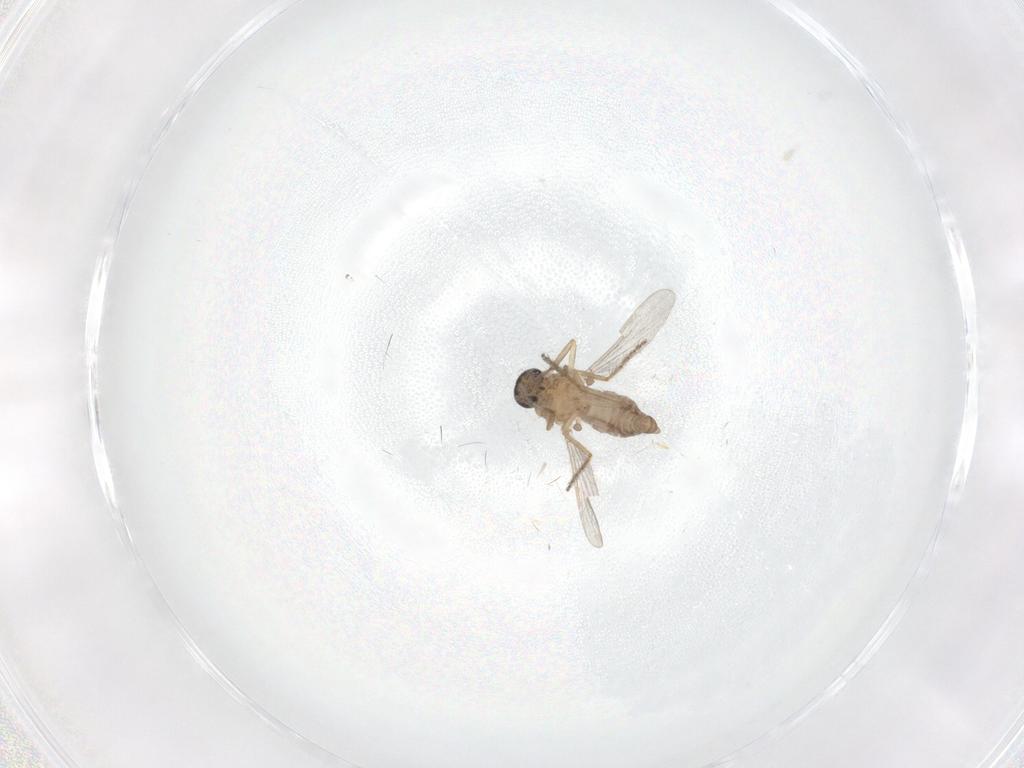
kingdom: Animalia
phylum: Arthropoda
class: Insecta
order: Diptera
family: Ceratopogonidae
